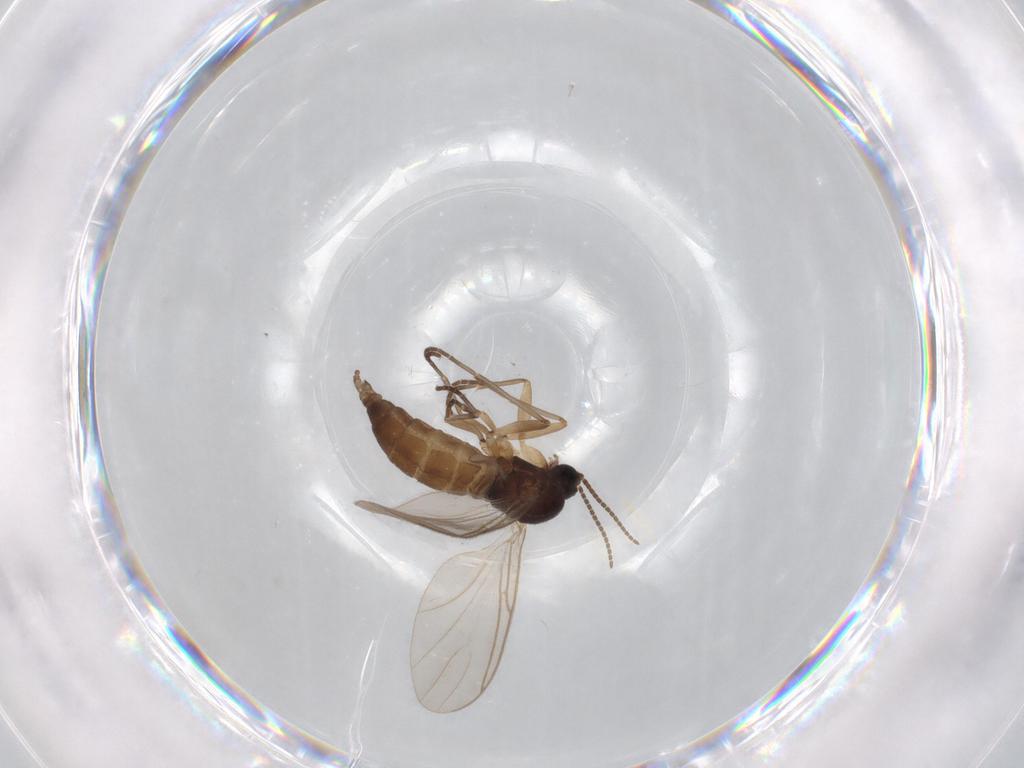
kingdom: Animalia
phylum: Arthropoda
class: Insecta
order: Diptera
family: Sciaridae
